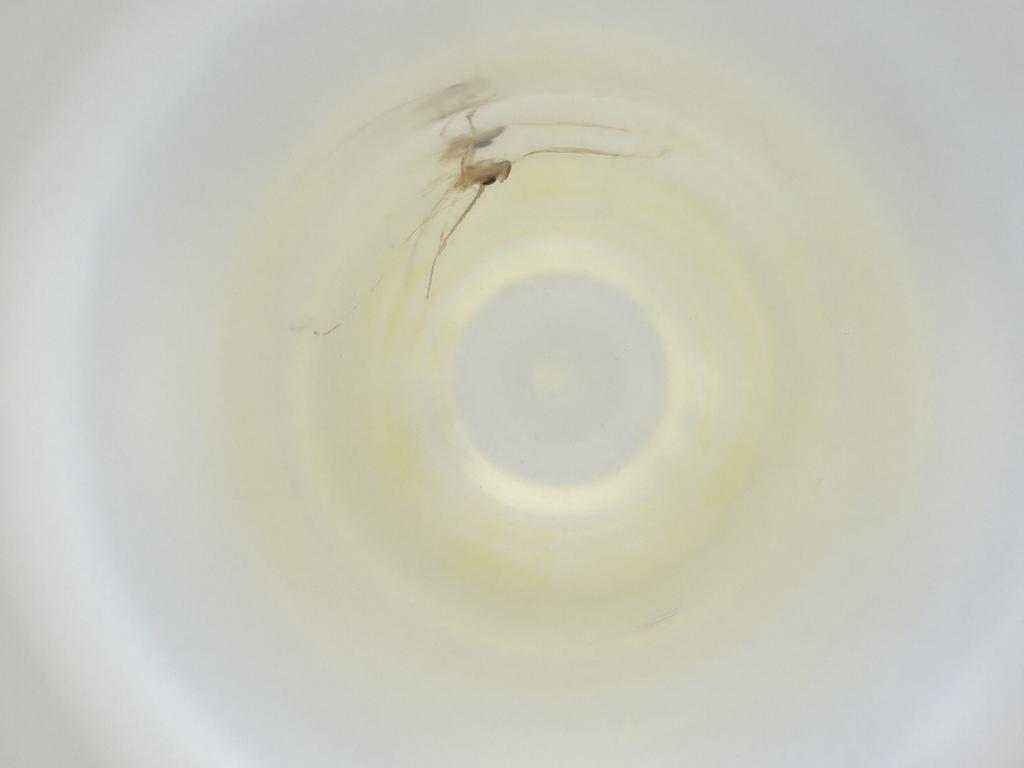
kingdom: Animalia
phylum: Arthropoda
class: Insecta
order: Diptera
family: Cecidomyiidae
